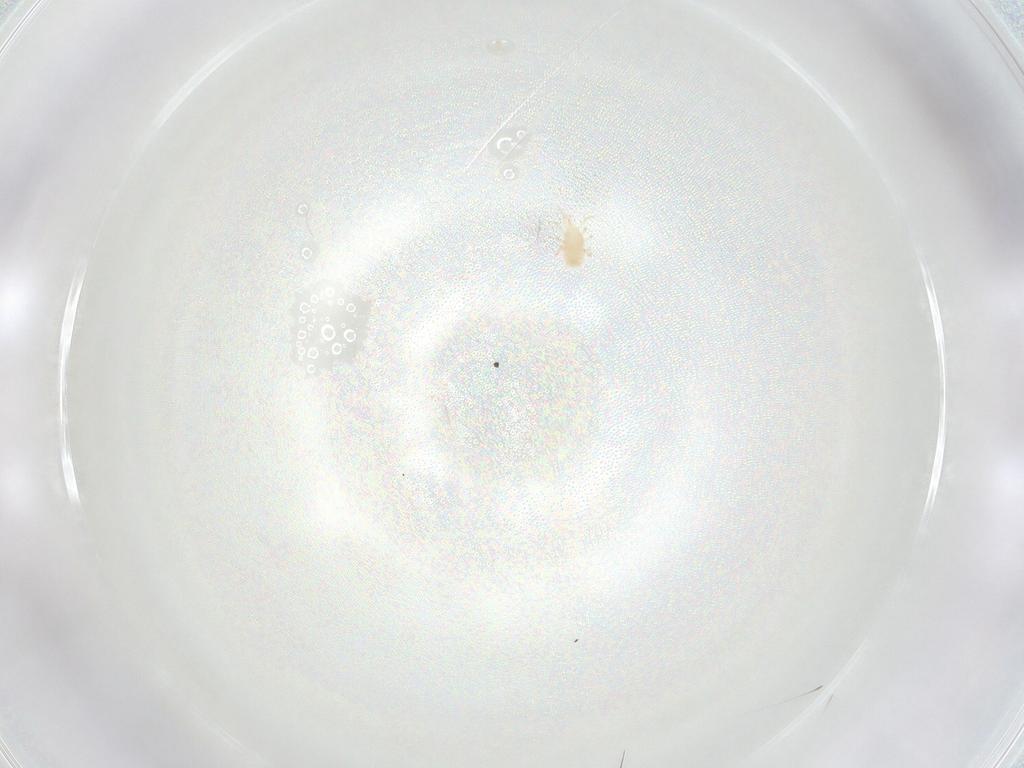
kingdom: Animalia
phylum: Arthropoda
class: Arachnida
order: Mesostigmata
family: Phytoseiidae
